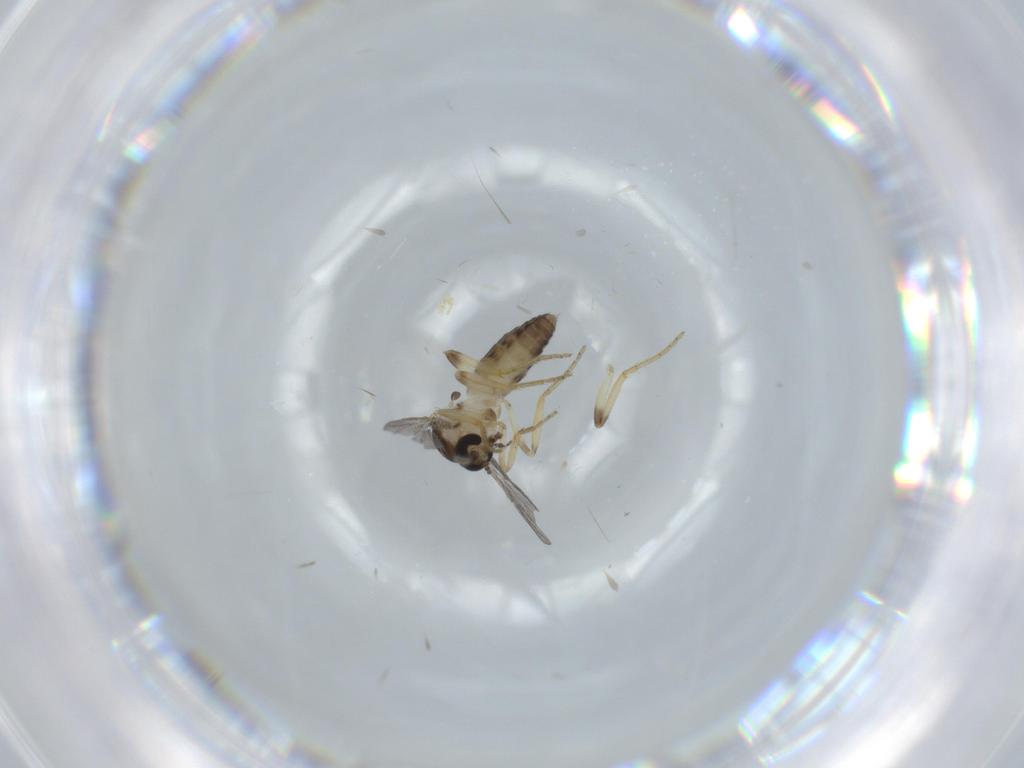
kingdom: Animalia
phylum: Arthropoda
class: Insecta
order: Diptera
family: Ceratopogonidae
